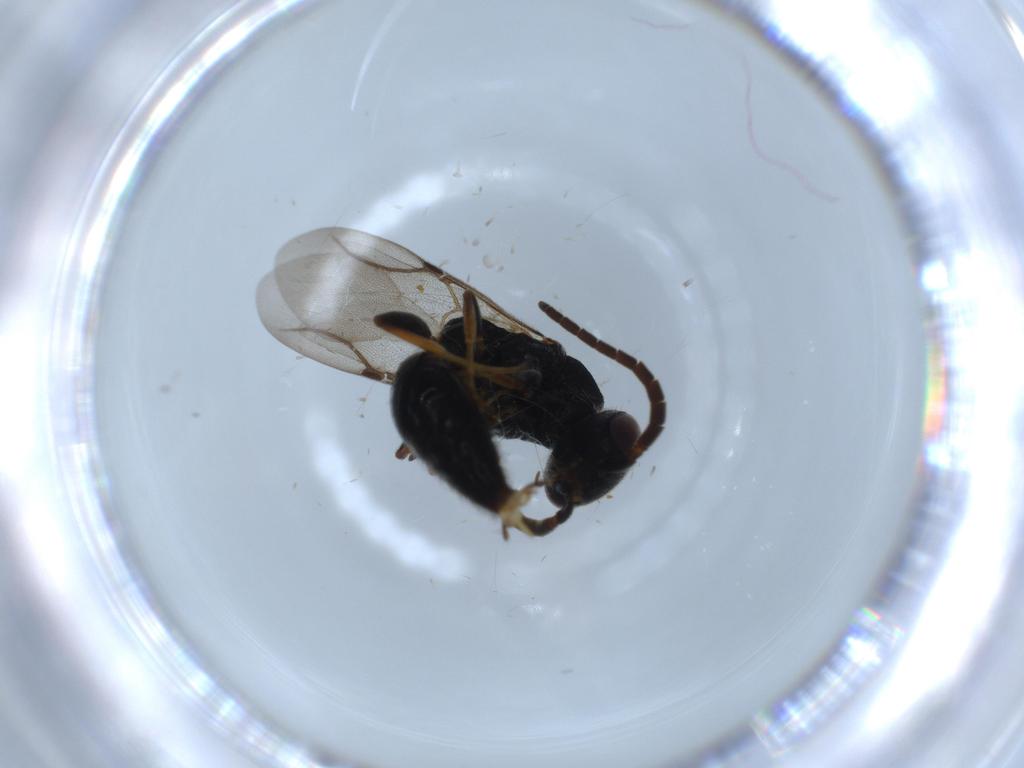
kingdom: Animalia
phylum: Arthropoda
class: Insecta
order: Hymenoptera
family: Bethylidae
